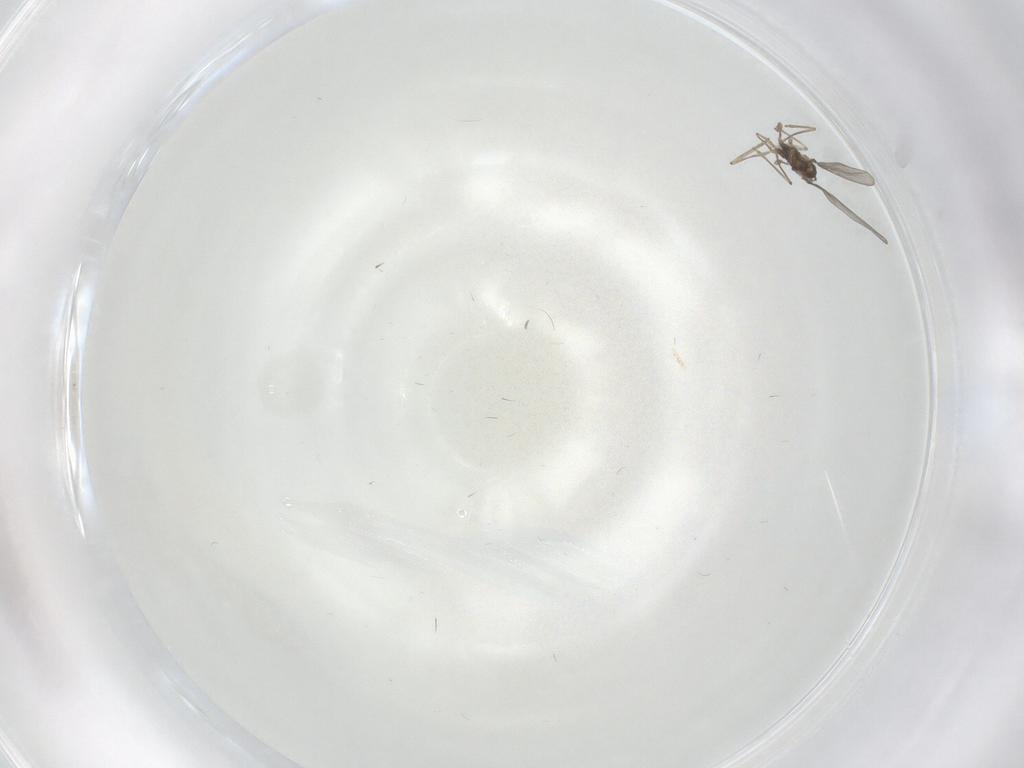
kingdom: Animalia
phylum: Arthropoda
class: Insecta
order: Diptera
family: Cecidomyiidae
